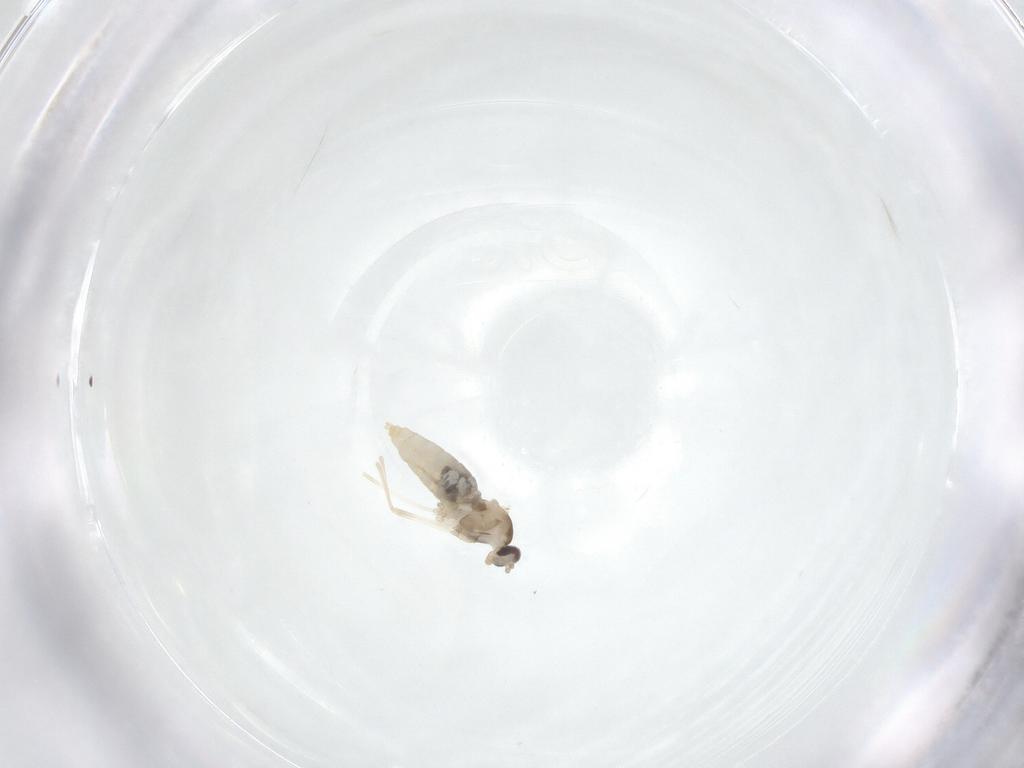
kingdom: Animalia
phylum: Arthropoda
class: Insecta
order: Diptera
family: Cecidomyiidae
